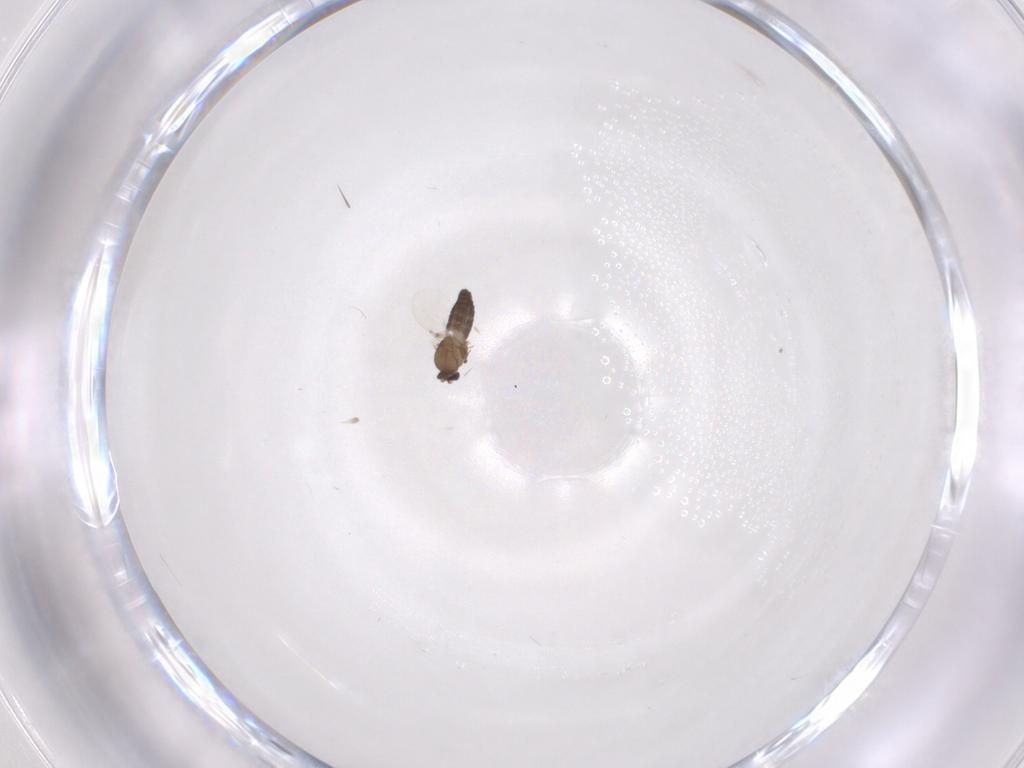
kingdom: Animalia
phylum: Arthropoda
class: Insecta
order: Diptera
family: Ceratopogonidae
